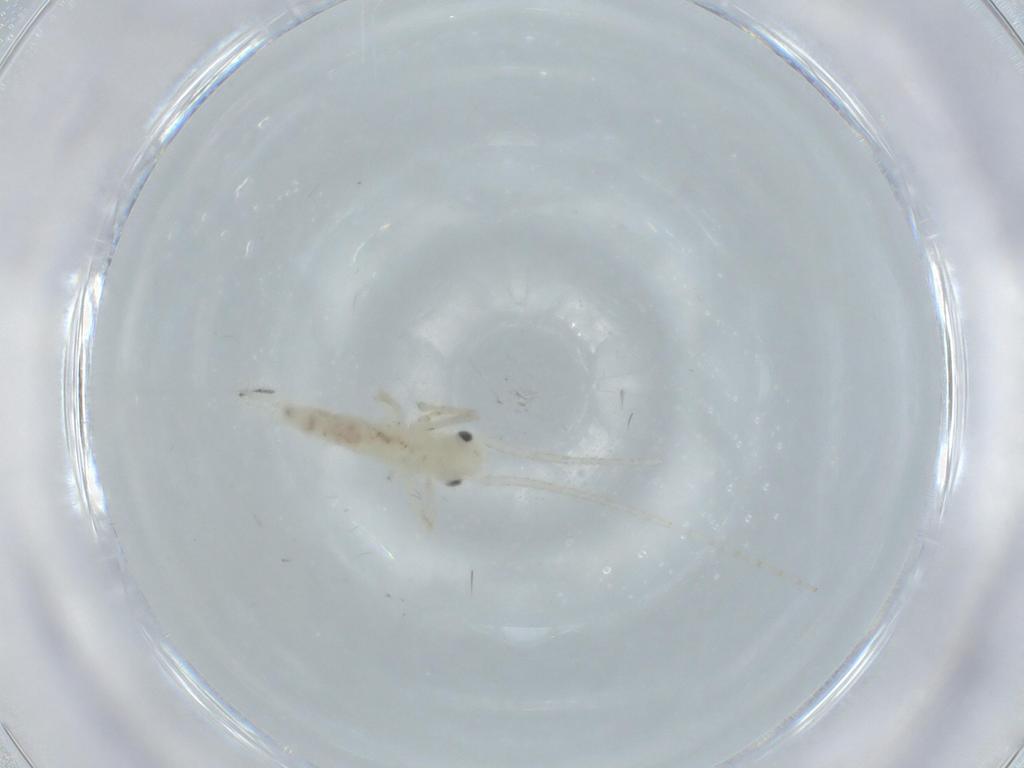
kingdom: Animalia
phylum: Arthropoda
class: Insecta
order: Orthoptera
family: Trigonidiidae
